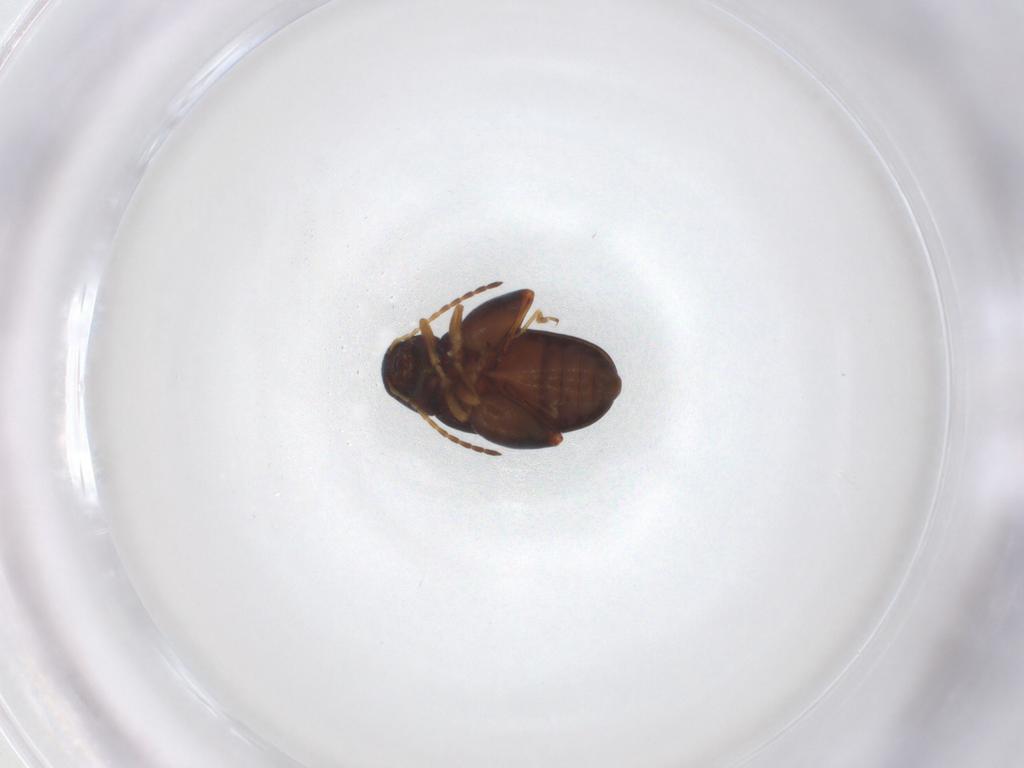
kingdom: Animalia
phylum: Arthropoda
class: Insecta
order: Coleoptera
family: Chrysomelidae
